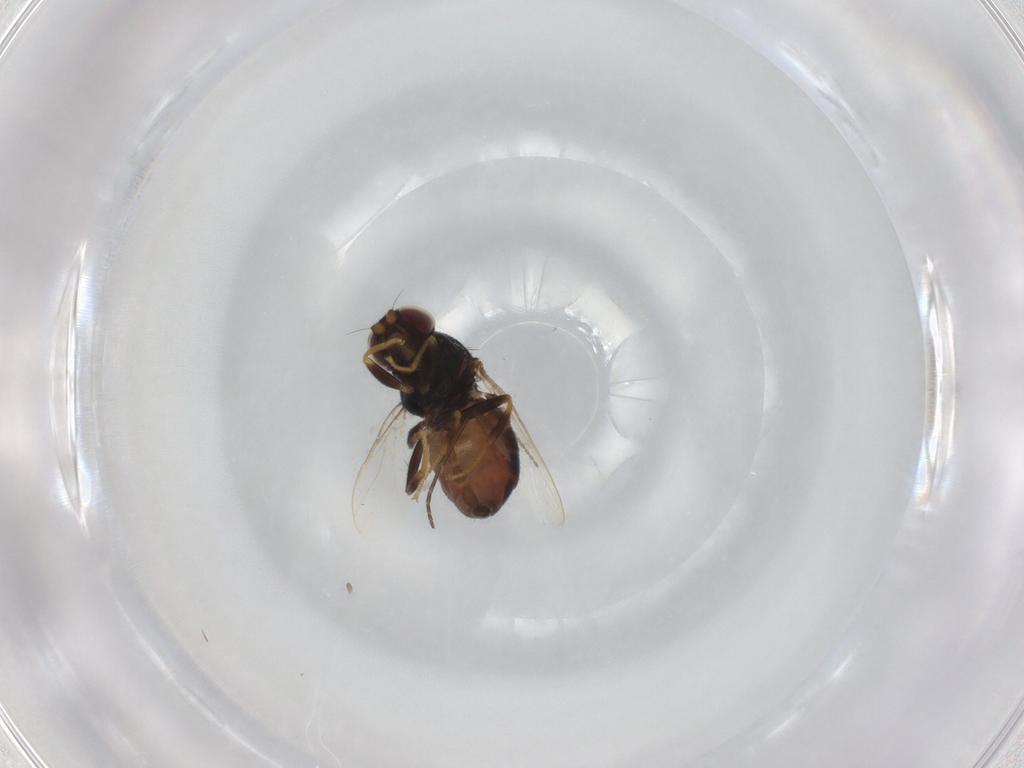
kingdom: Animalia
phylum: Arthropoda
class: Insecta
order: Diptera
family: Chloropidae
